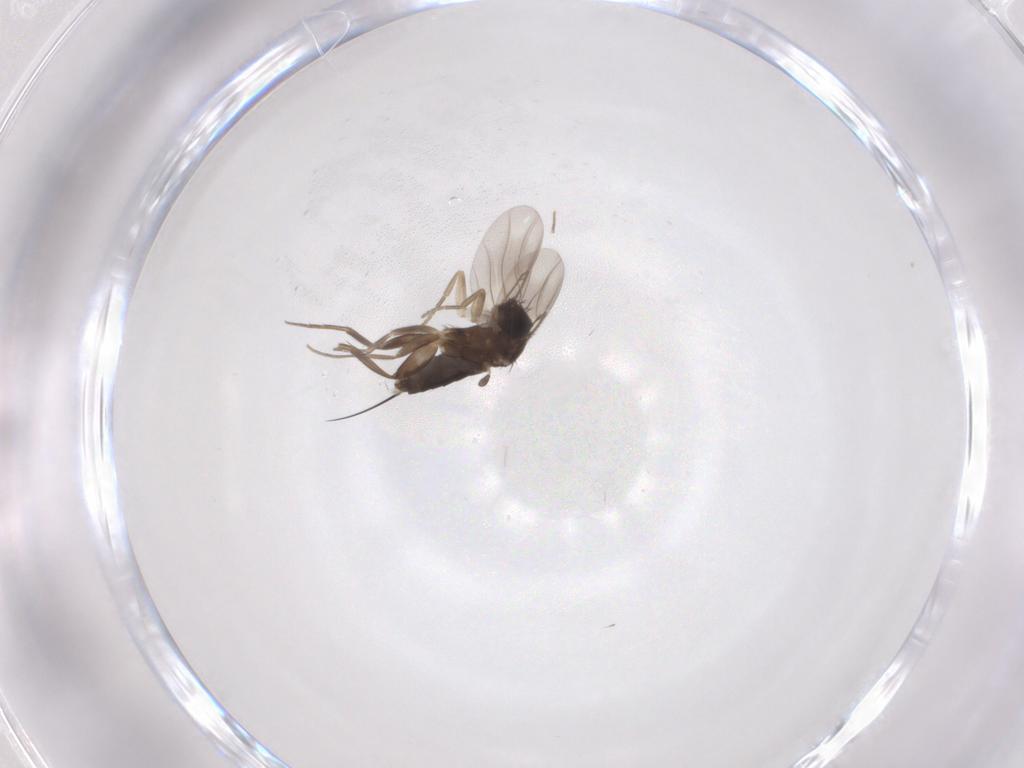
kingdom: Animalia
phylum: Arthropoda
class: Insecta
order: Diptera
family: Phoridae
